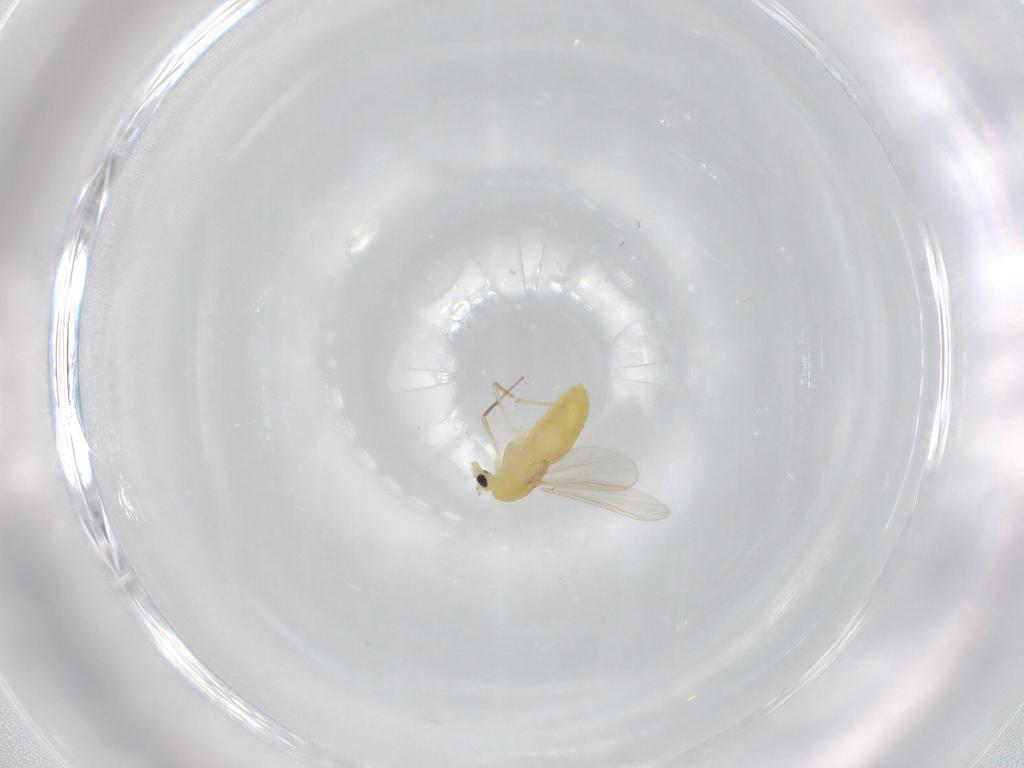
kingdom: Animalia
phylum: Arthropoda
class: Insecta
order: Diptera
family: Chironomidae
